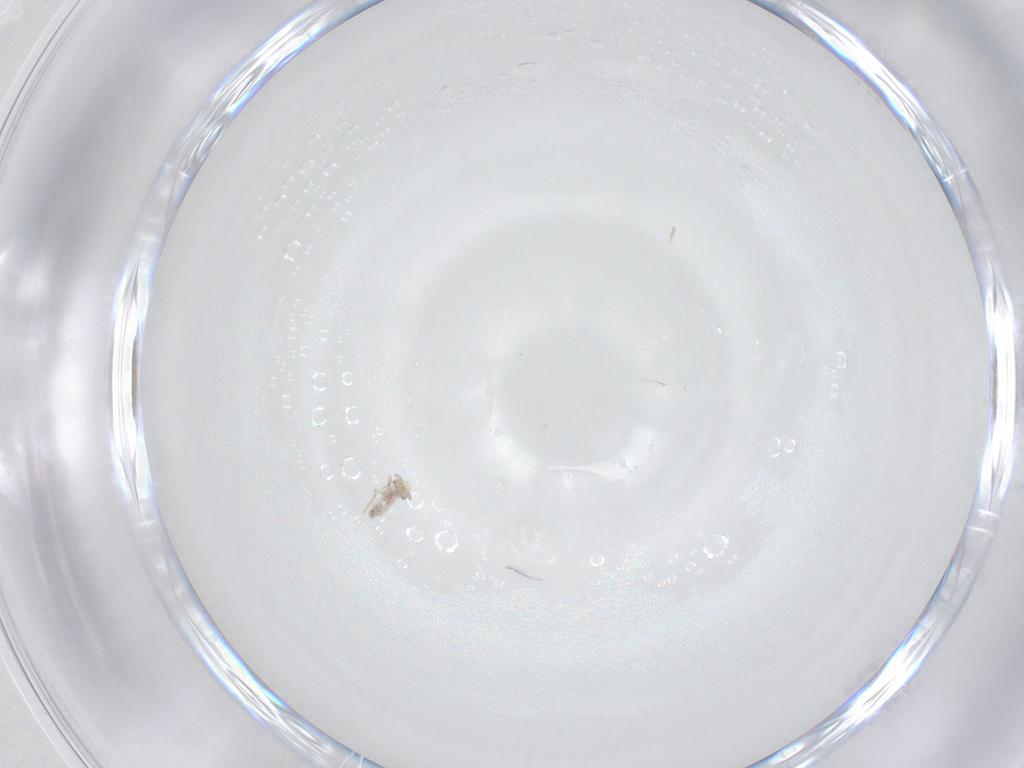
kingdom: Animalia
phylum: Arthropoda
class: Insecta
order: Psocodea
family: Lepidopsocidae
